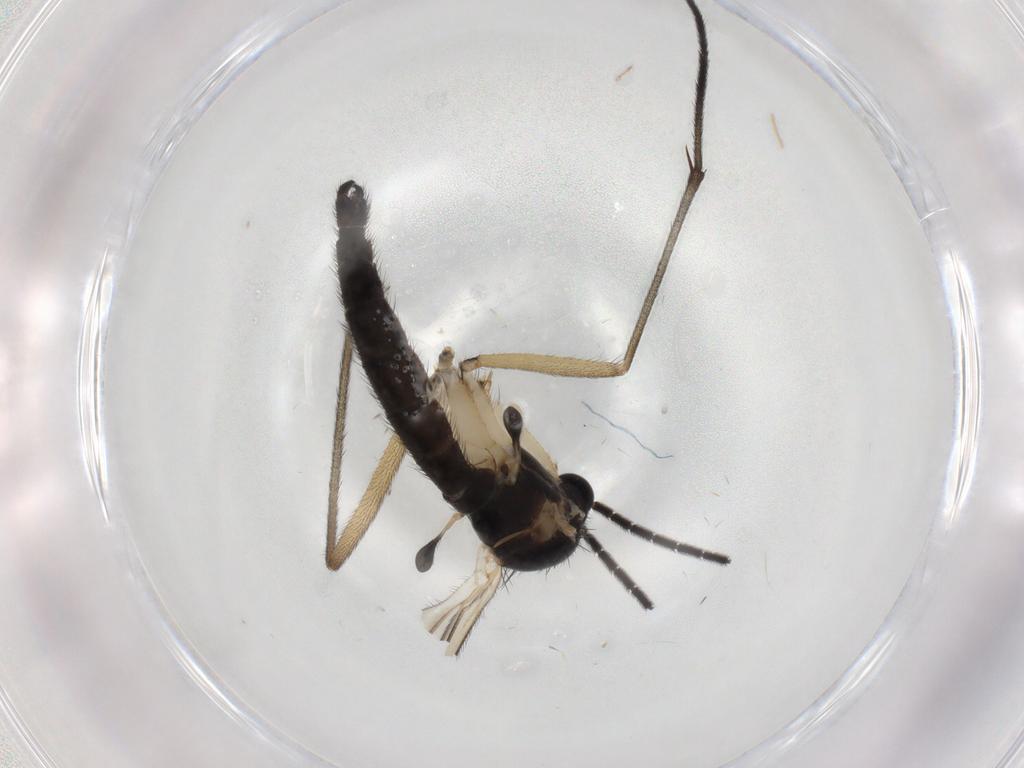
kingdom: Animalia
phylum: Arthropoda
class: Insecta
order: Diptera
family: Sciaridae
